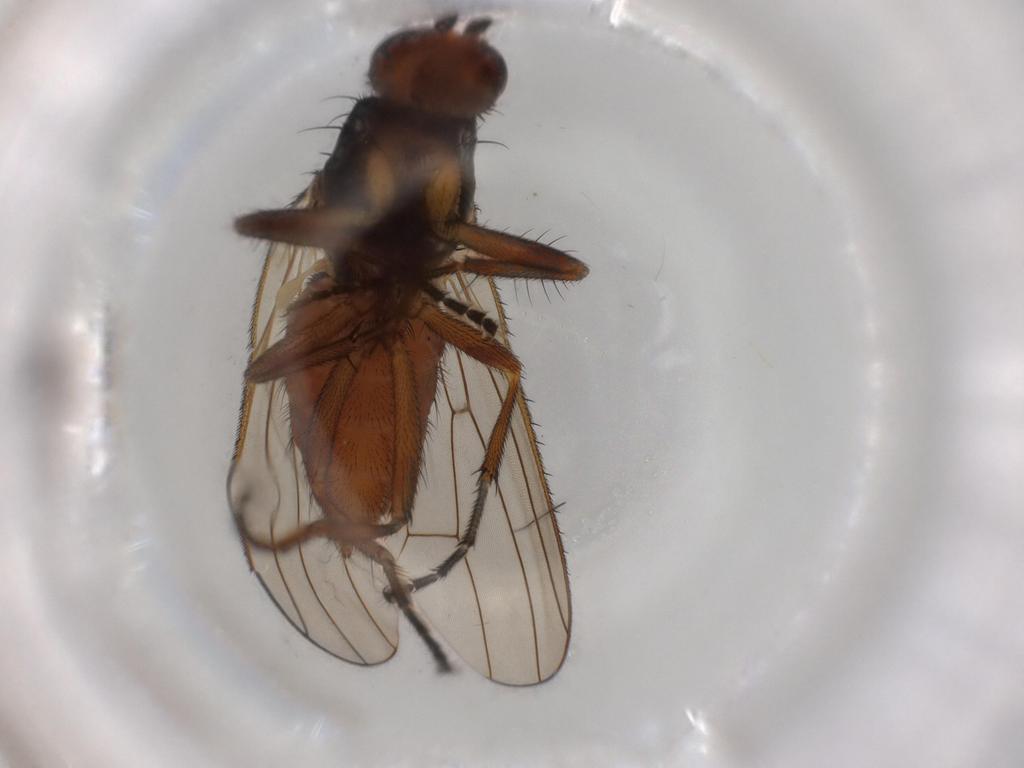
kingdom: Animalia
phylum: Arthropoda
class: Insecta
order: Diptera
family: Heleomyzidae
